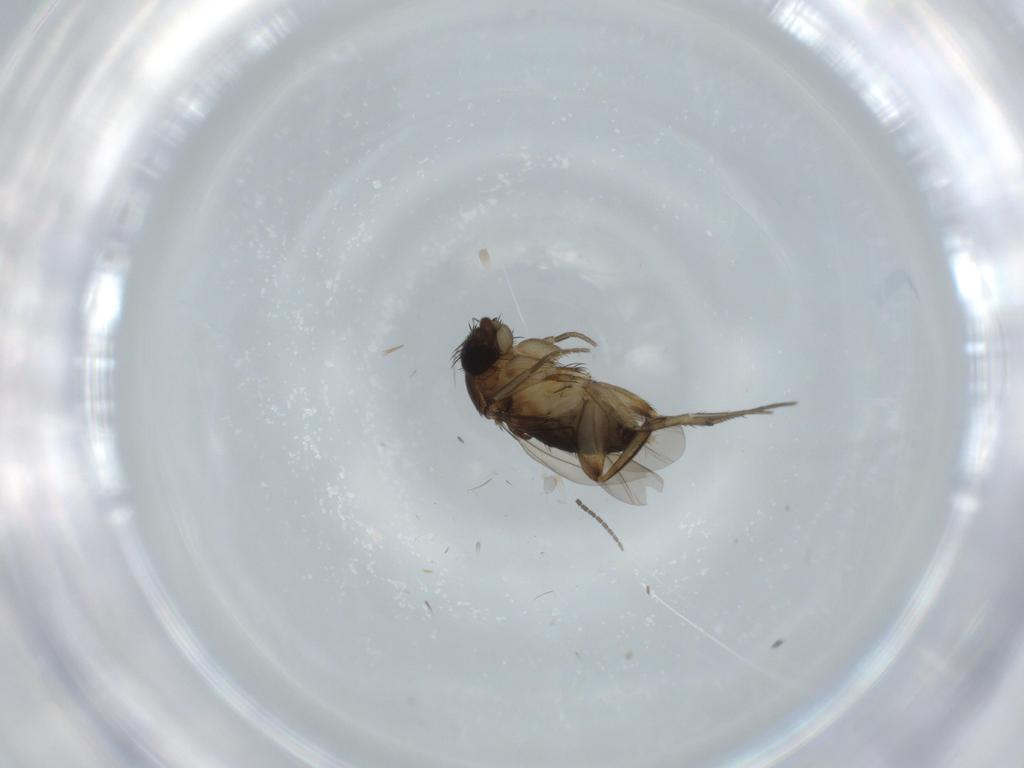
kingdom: Animalia
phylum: Arthropoda
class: Insecta
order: Diptera
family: Phoridae
